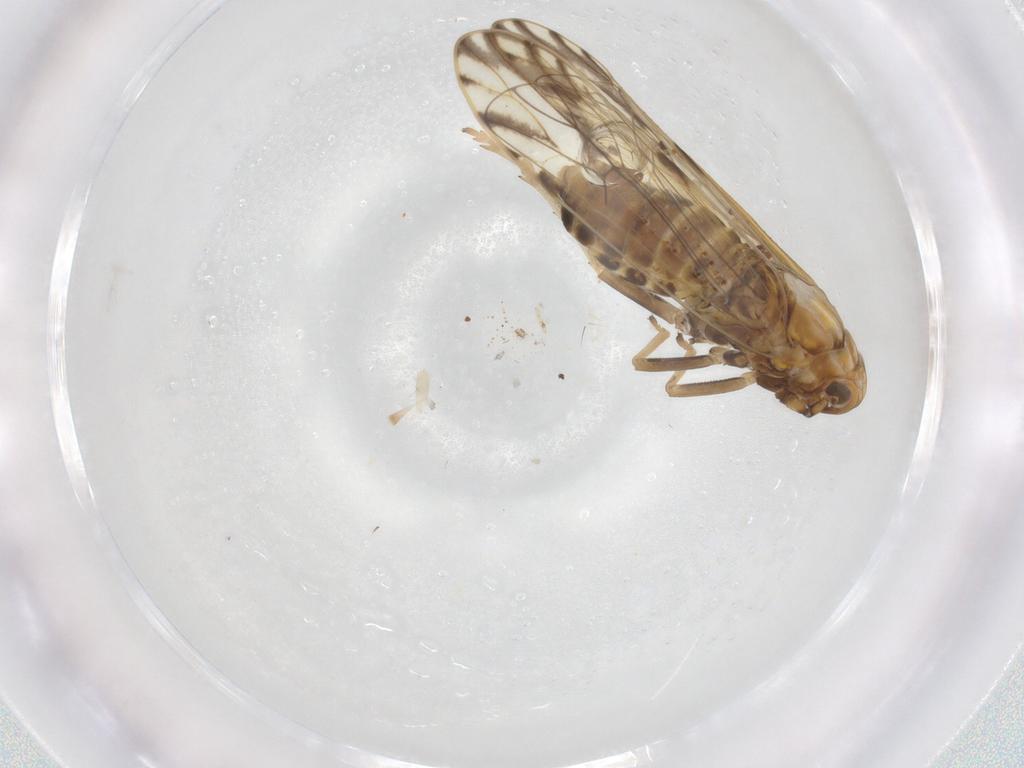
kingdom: Animalia
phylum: Arthropoda
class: Insecta
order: Hemiptera
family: Delphacidae
